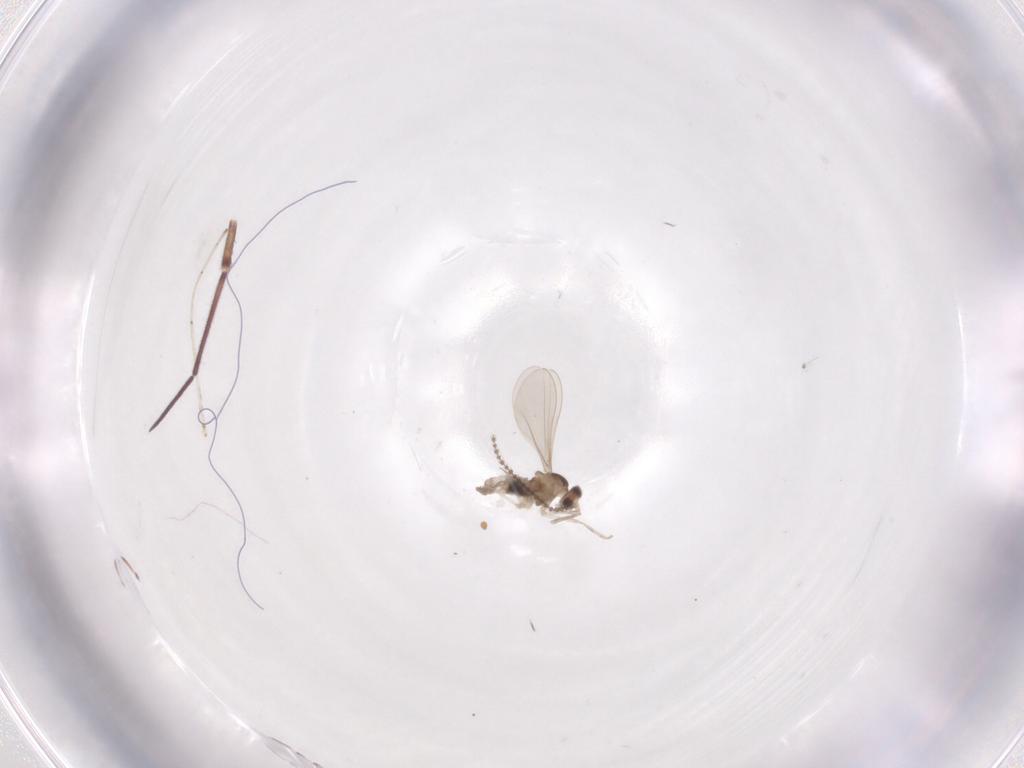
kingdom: Animalia
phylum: Arthropoda
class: Insecta
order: Diptera
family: Cecidomyiidae
